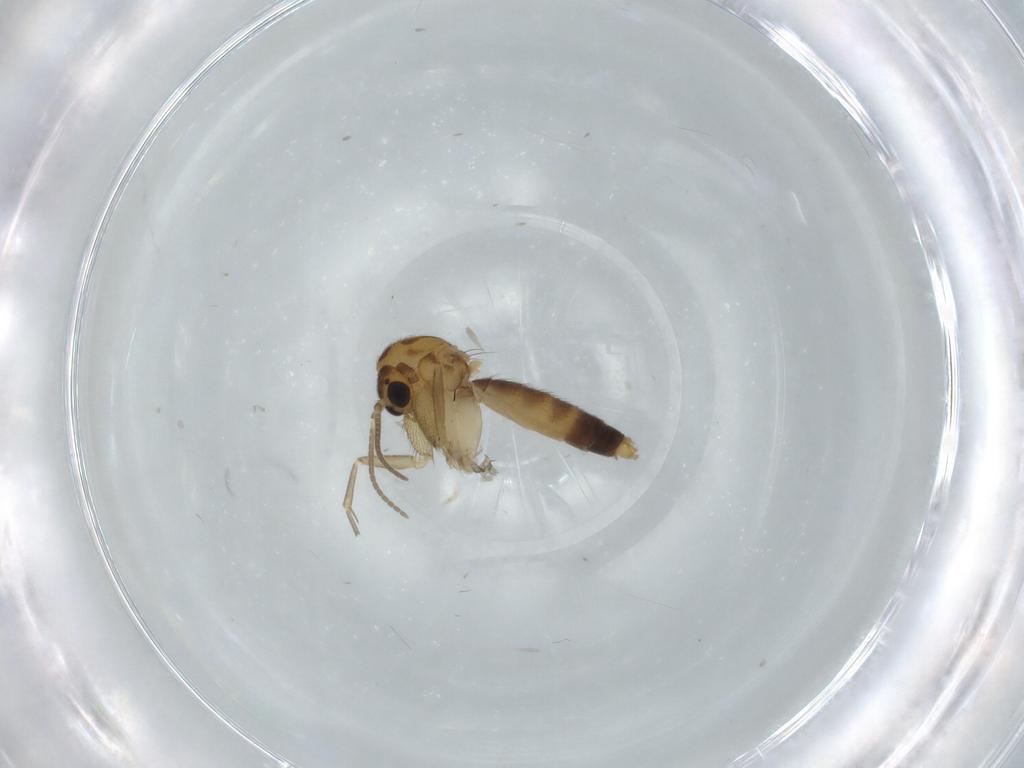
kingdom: Animalia
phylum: Arthropoda
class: Insecta
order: Diptera
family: Mycetophilidae
